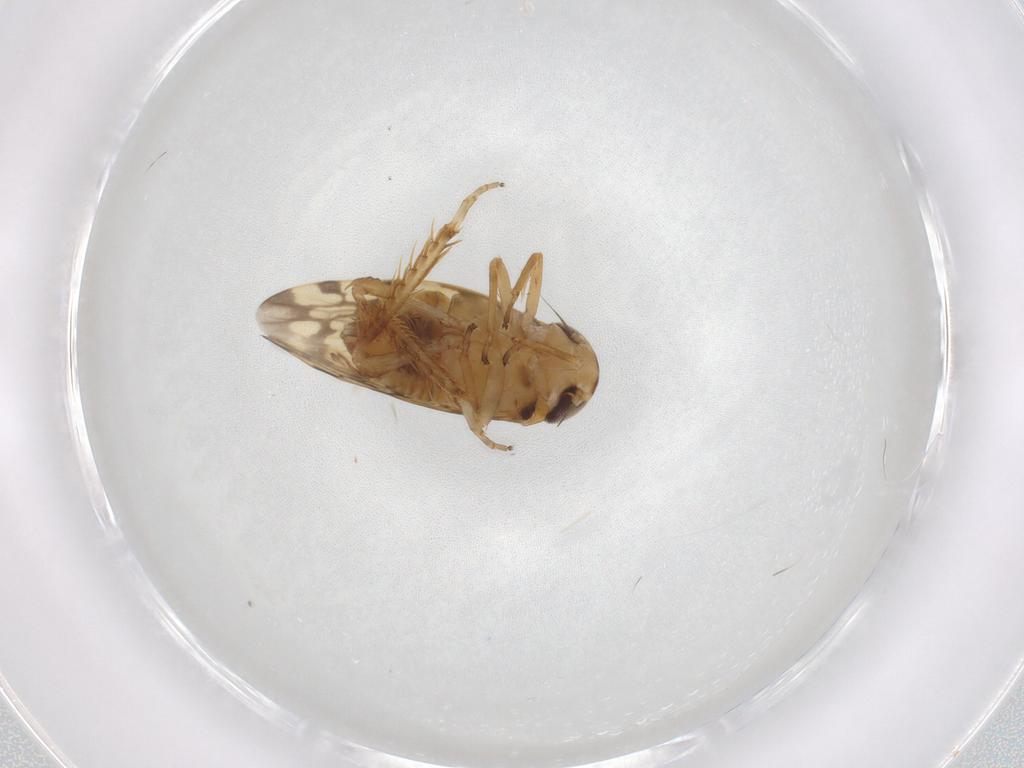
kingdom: Animalia
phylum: Arthropoda
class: Insecta
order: Hemiptera
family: Cicadellidae
